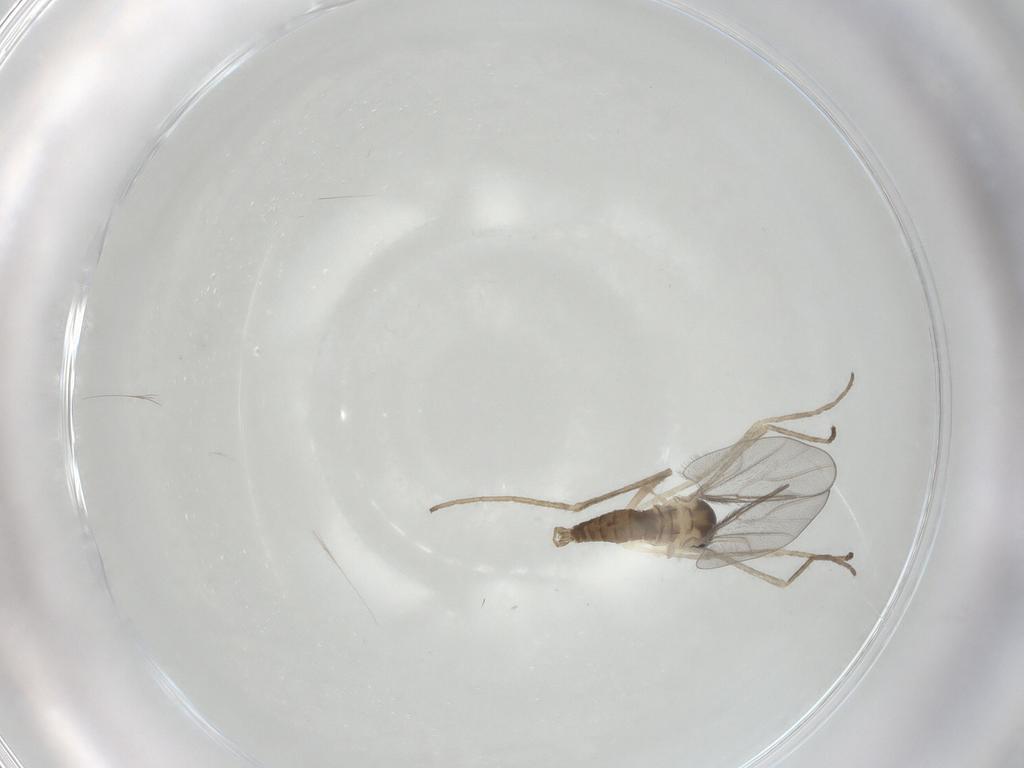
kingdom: Animalia
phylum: Arthropoda
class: Insecta
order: Diptera
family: Cecidomyiidae
